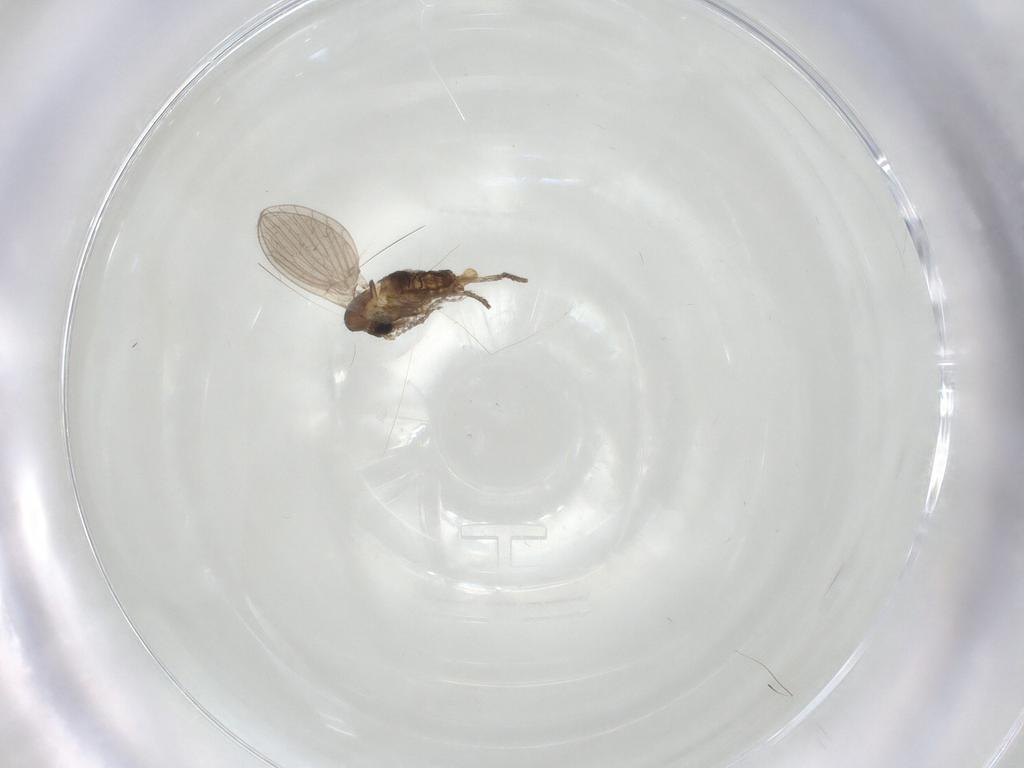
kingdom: Animalia
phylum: Arthropoda
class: Insecta
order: Diptera
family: Psychodidae
